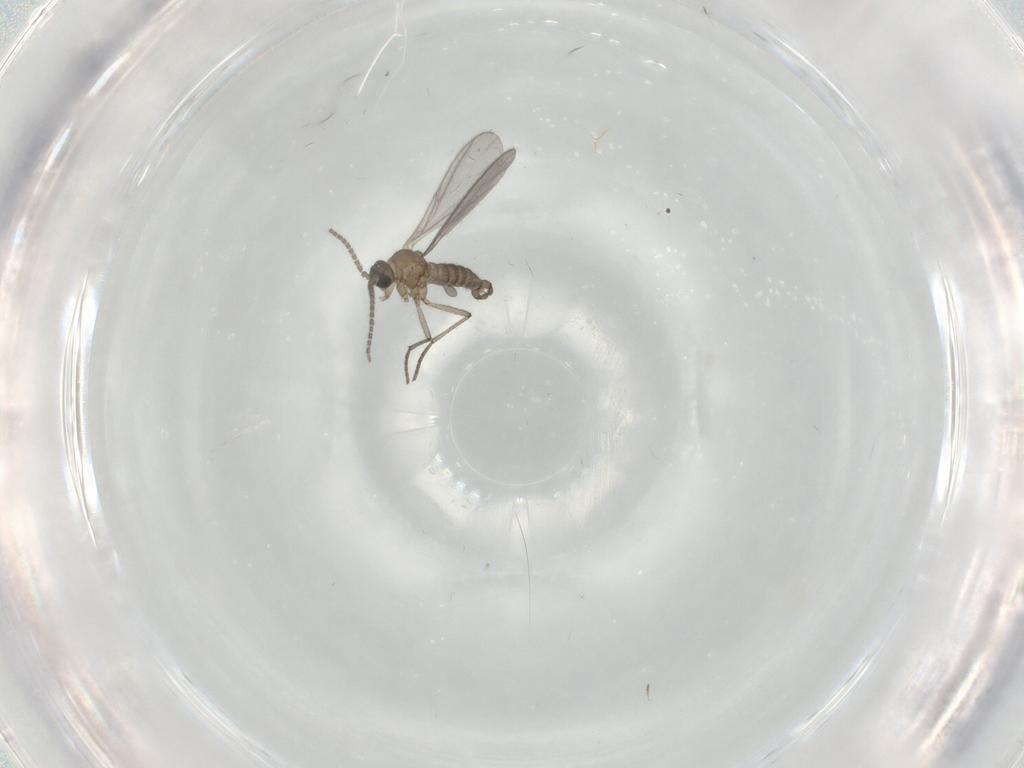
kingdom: Animalia
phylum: Arthropoda
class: Insecta
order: Diptera
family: Sciaridae
